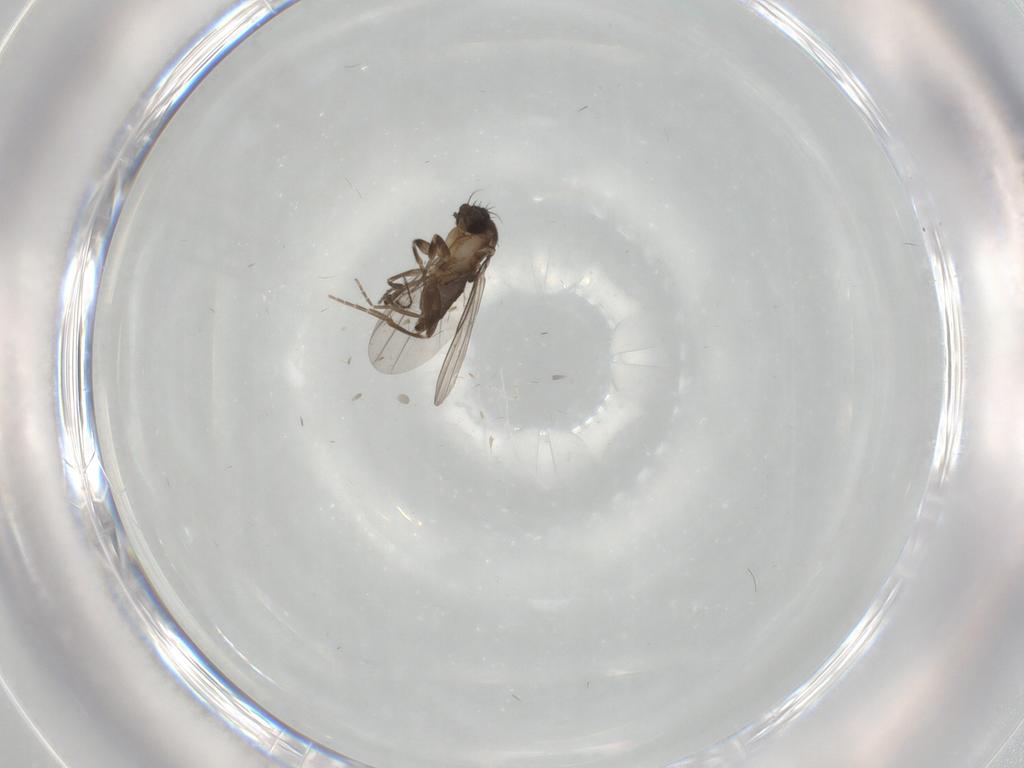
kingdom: Animalia
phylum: Arthropoda
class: Insecta
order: Diptera
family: Ceratopogonidae
